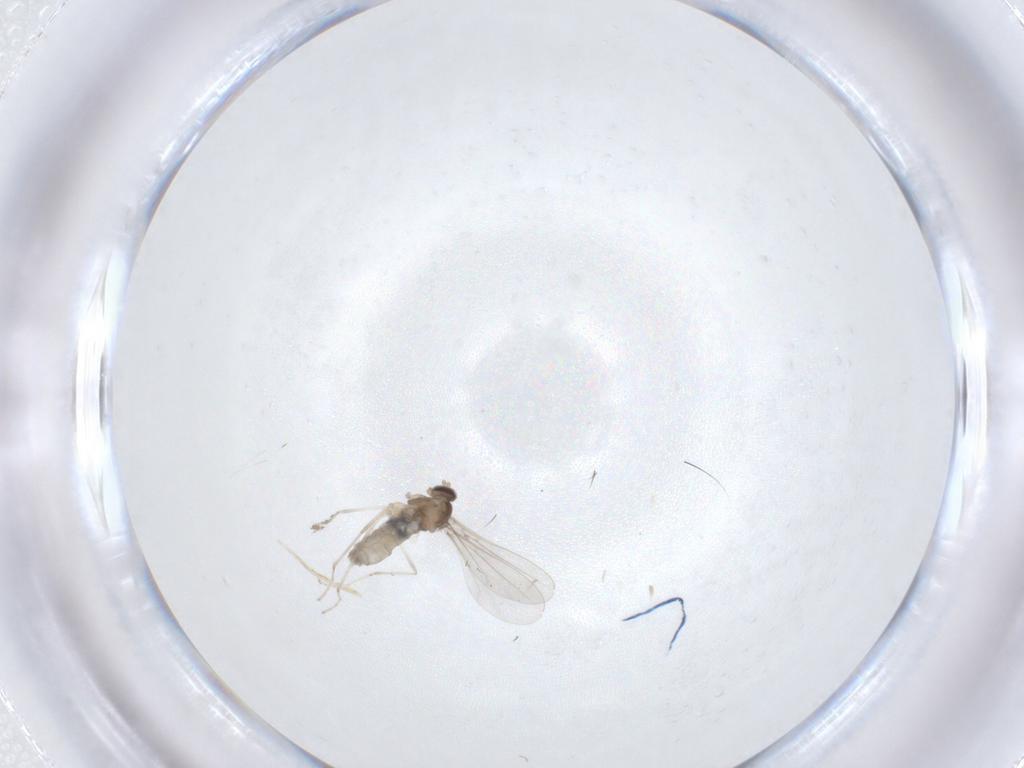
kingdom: Animalia
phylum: Arthropoda
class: Insecta
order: Diptera
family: Cecidomyiidae
